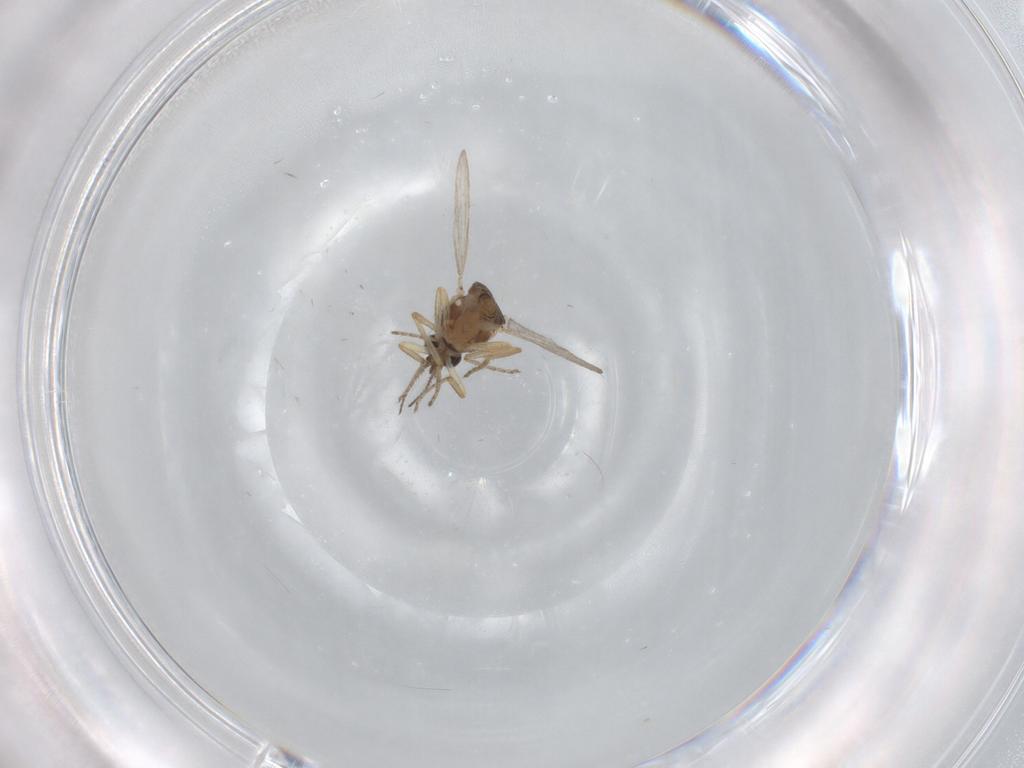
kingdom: Animalia
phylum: Arthropoda
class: Insecta
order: Diptera
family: Ceratopogonidae
